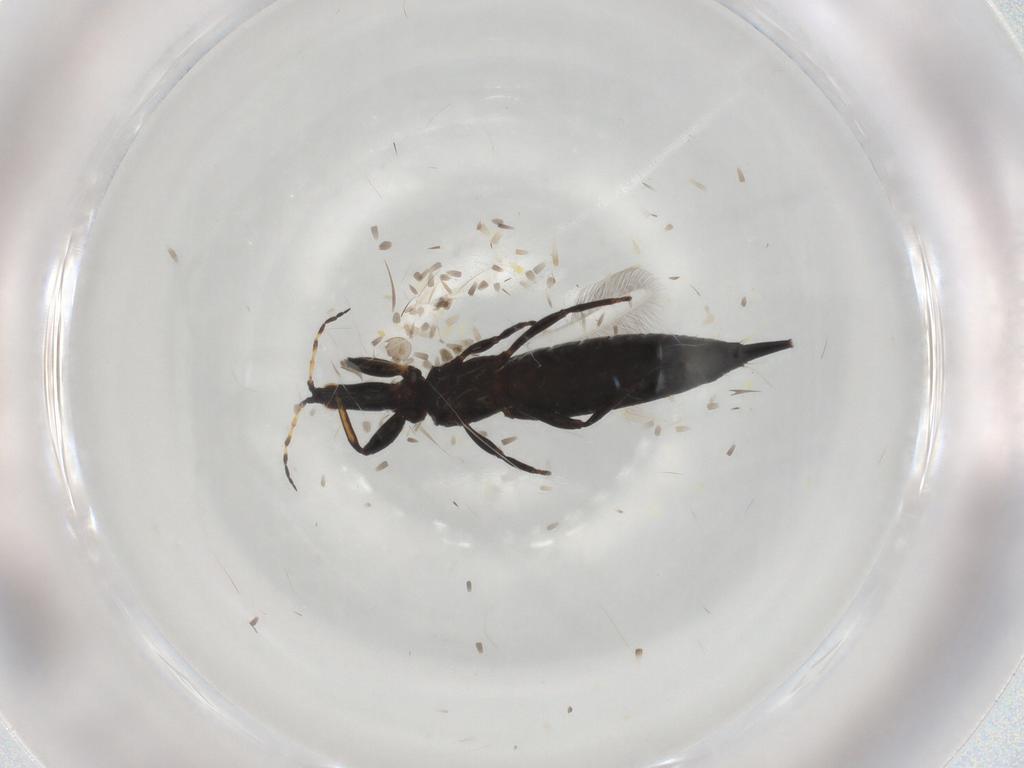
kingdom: Animalia
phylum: Arthropoda
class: Insecta
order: Thysanoptera
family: Phlaeothripidae
